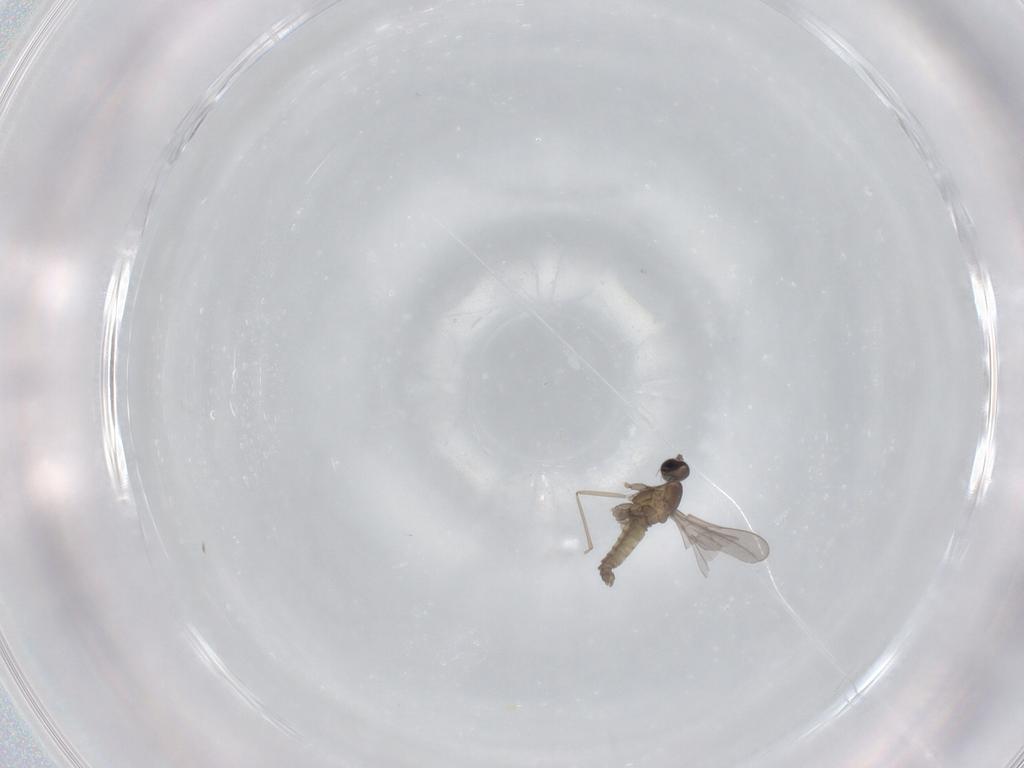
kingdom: Animalia
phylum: Arthropoda
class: Insecta
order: Diptera
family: Cecidomyiidae
